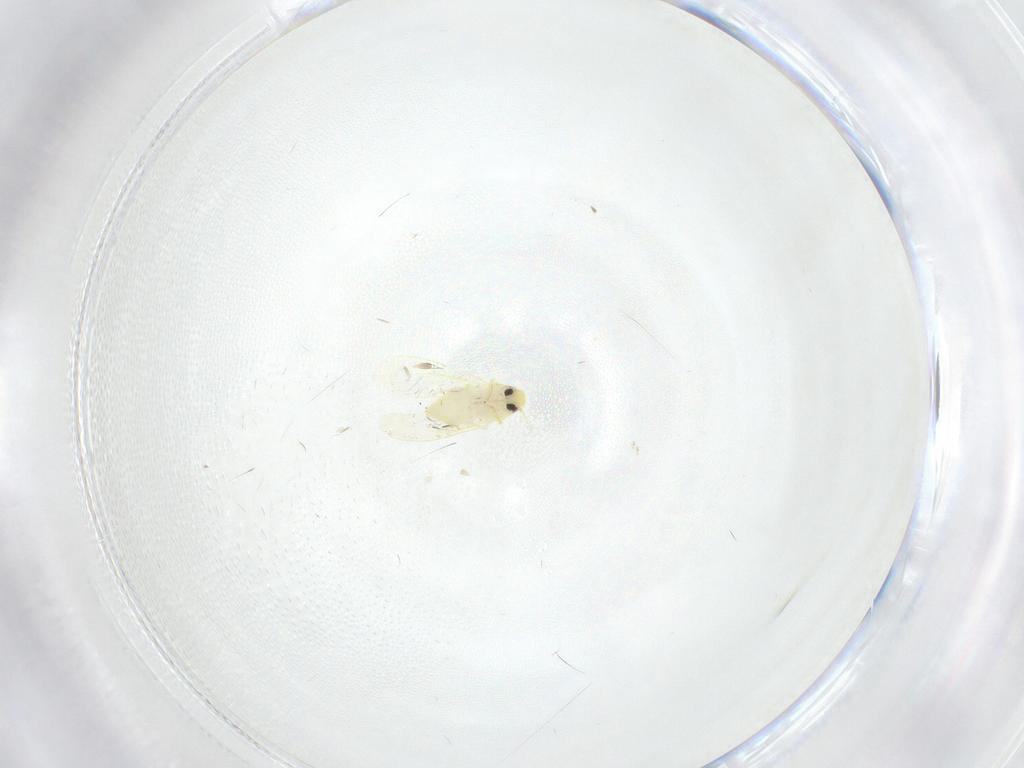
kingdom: Animalia
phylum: Arthropoda
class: Insecta
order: Hemiptera
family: Aleyrodidae
